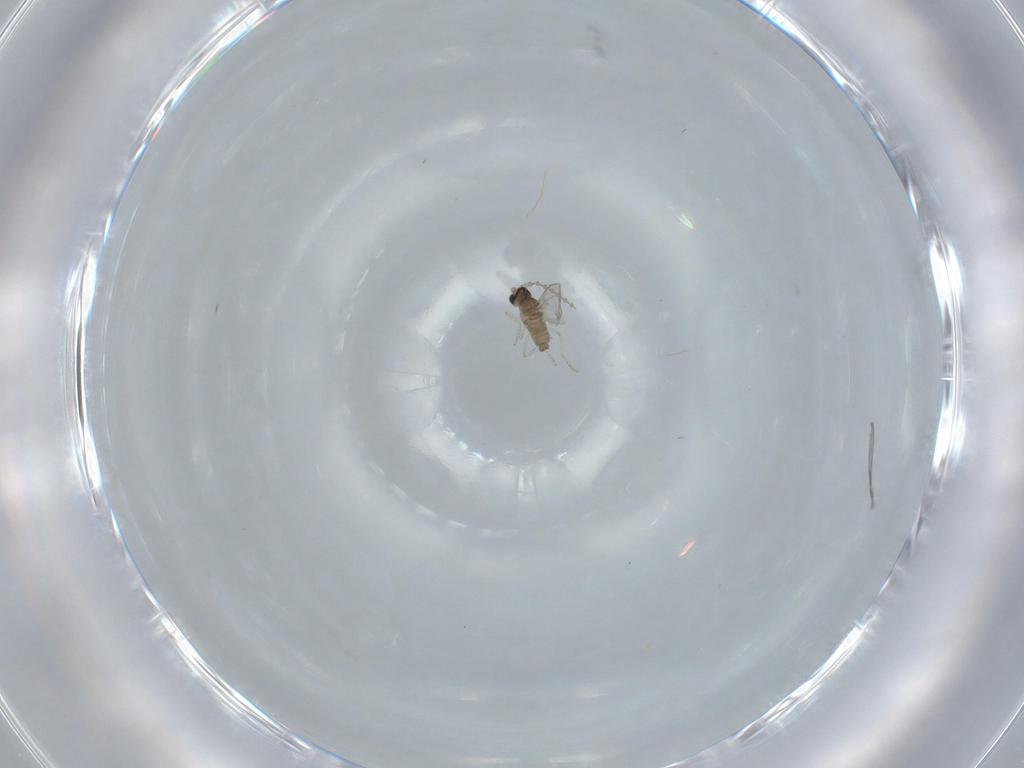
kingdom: Animalia
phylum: Arthropoda
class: Insecta
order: Diptera
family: Cecidomyiidae
